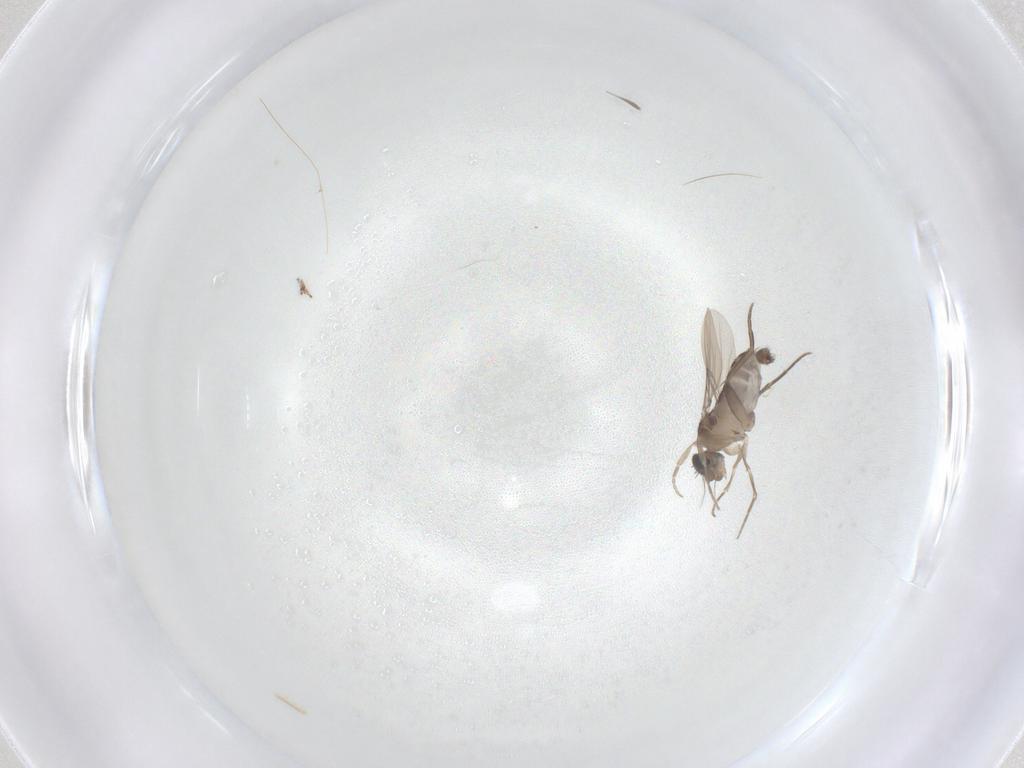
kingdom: Animalia
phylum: Arthropoda
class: Insecta
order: Diptera
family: Phoridae
